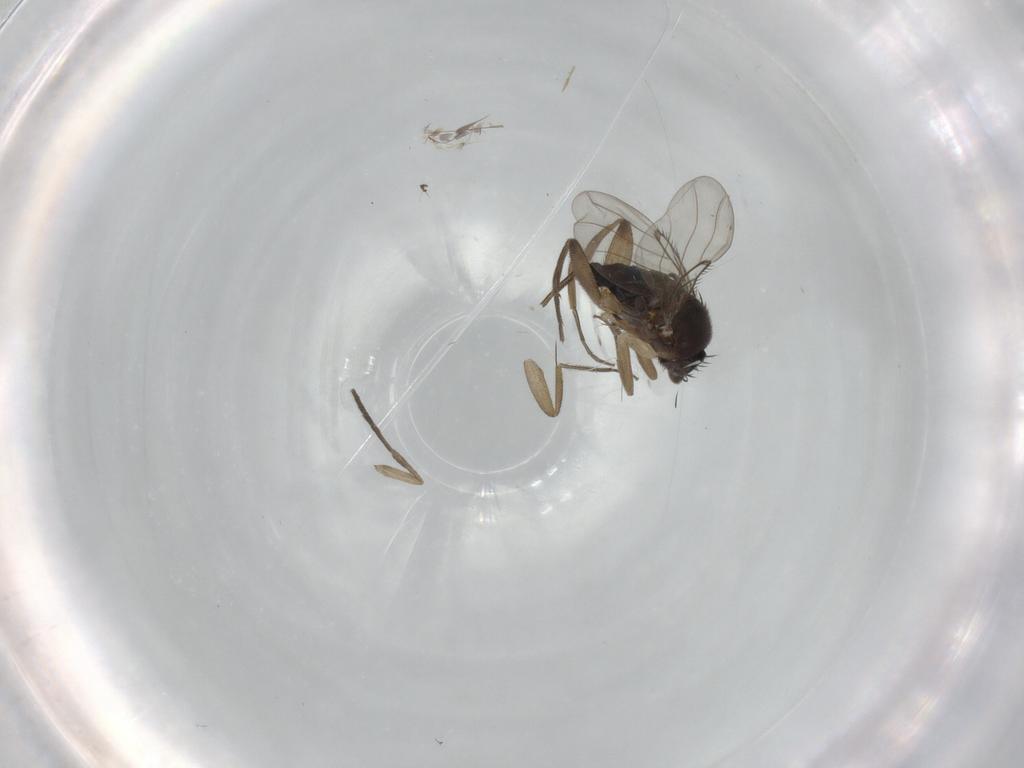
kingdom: Animalia
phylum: Arthropoda
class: Insecta
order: Diptera
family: Phoridae
